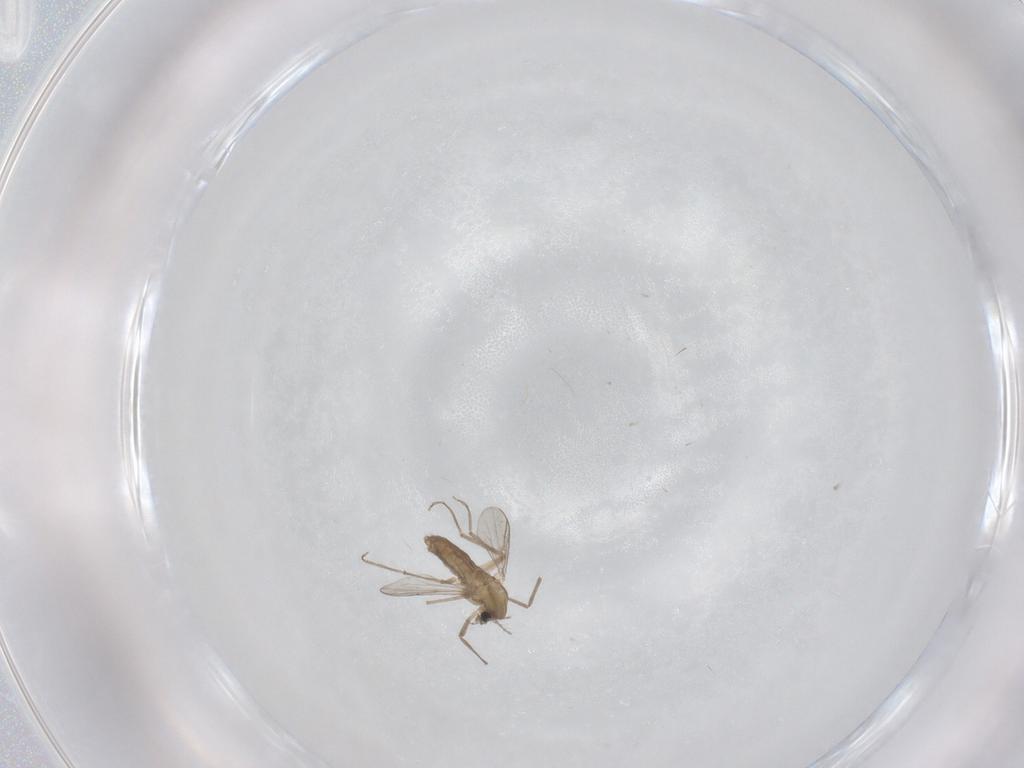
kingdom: Animalia
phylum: Arthropoda
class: Insecta
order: Diptera
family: Chironomidae
